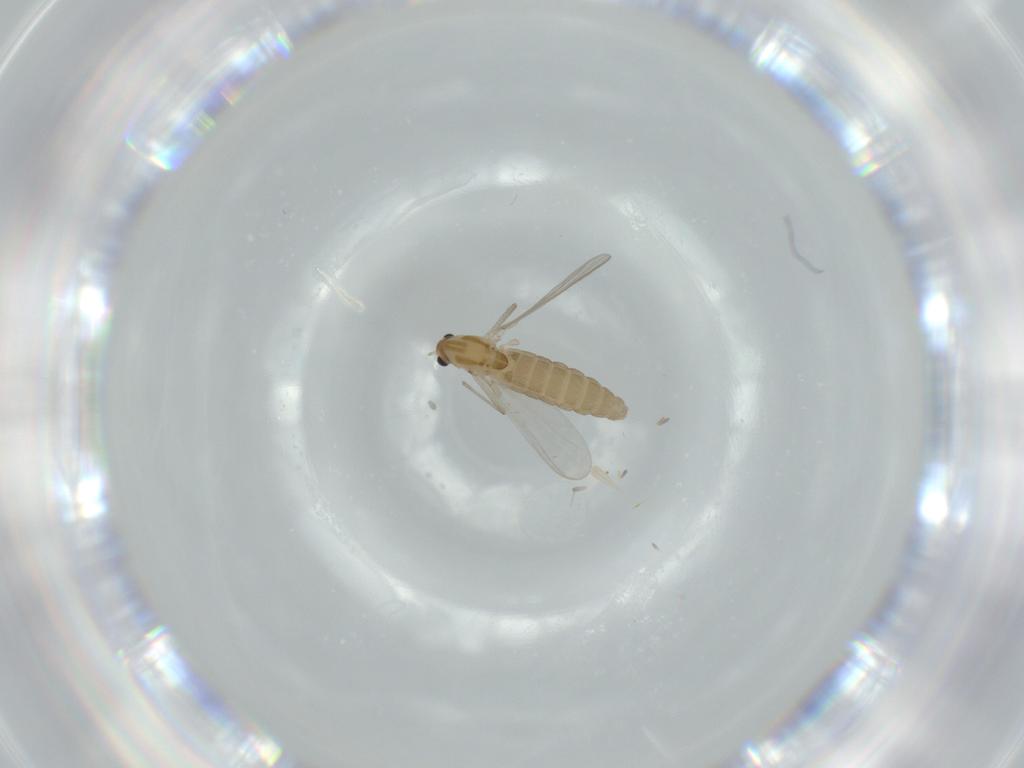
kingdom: Animalia
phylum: Arthropoda
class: Insecta
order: Diptera
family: Chironomidae
